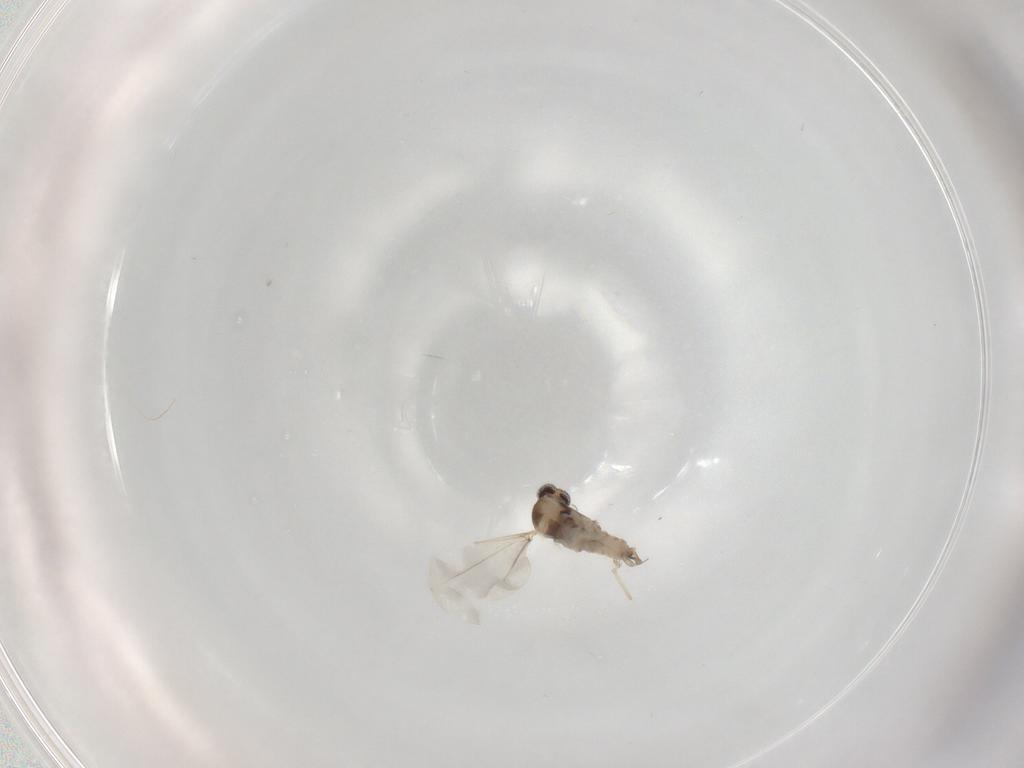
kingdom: Animalia
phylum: Arthropoda
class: Insecta
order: Diptera
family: Cecidomyiidae
